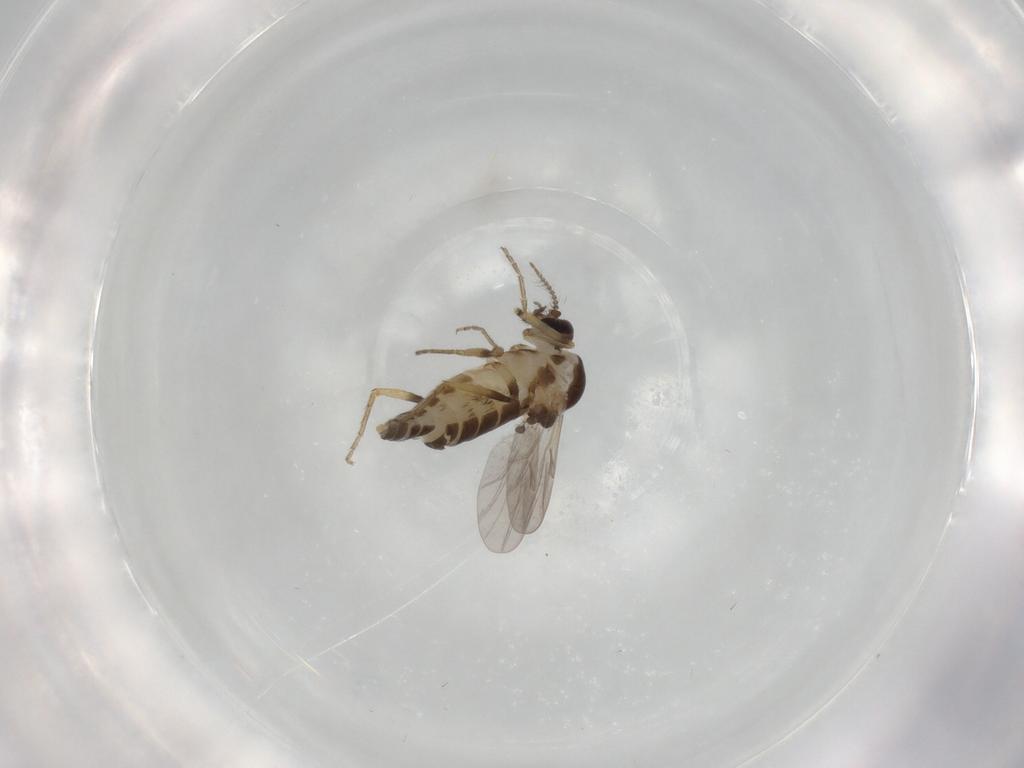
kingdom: Animalia
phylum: Arthropoda
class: Insecta
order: Diptera
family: Ceratopogonidae
